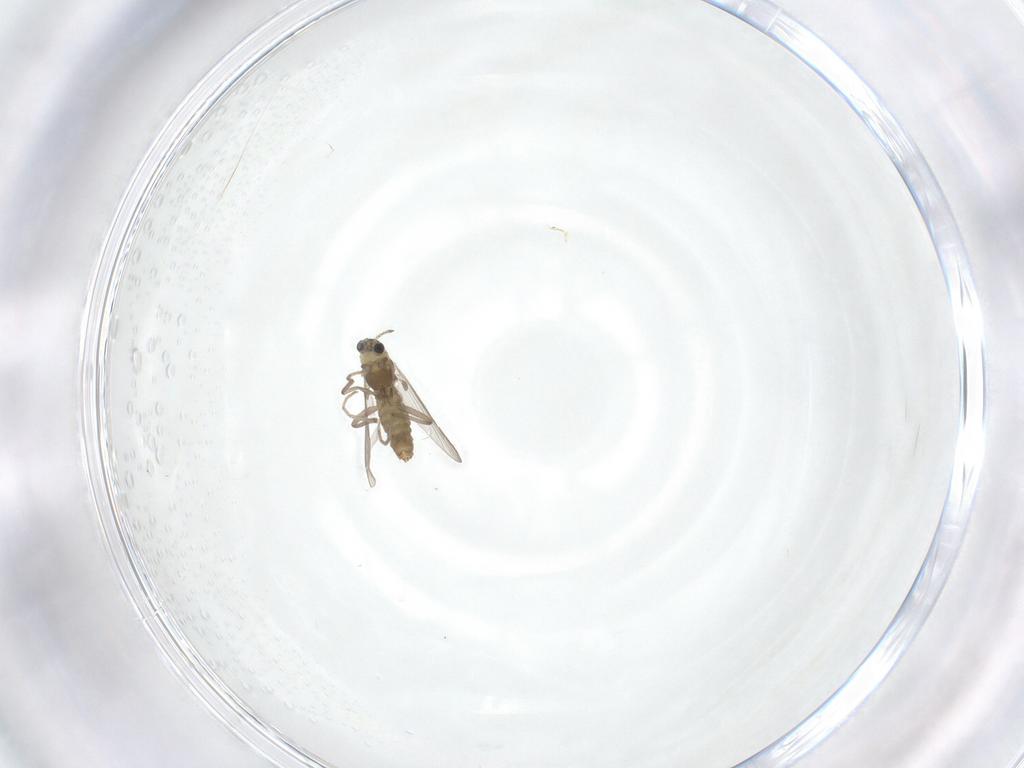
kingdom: Animalia
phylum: Arthropoda
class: Insecta
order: Diptera
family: Chironomidae
